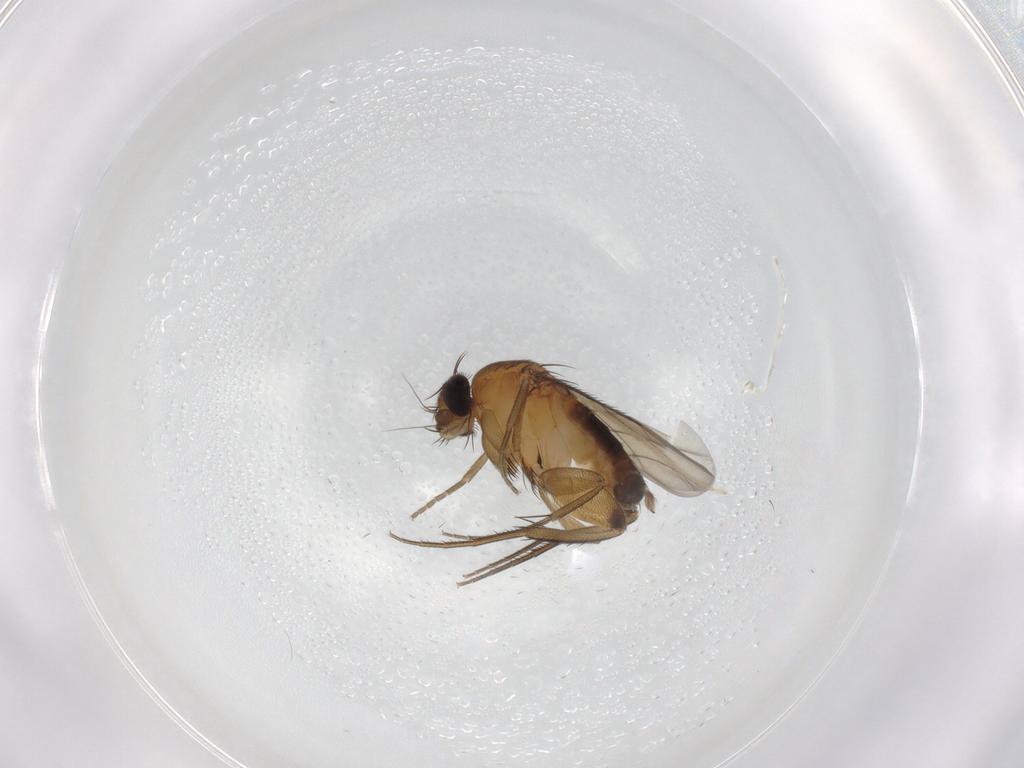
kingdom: Animalia
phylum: Arthropoda
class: Insecta
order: Diptera
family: Phoridae
